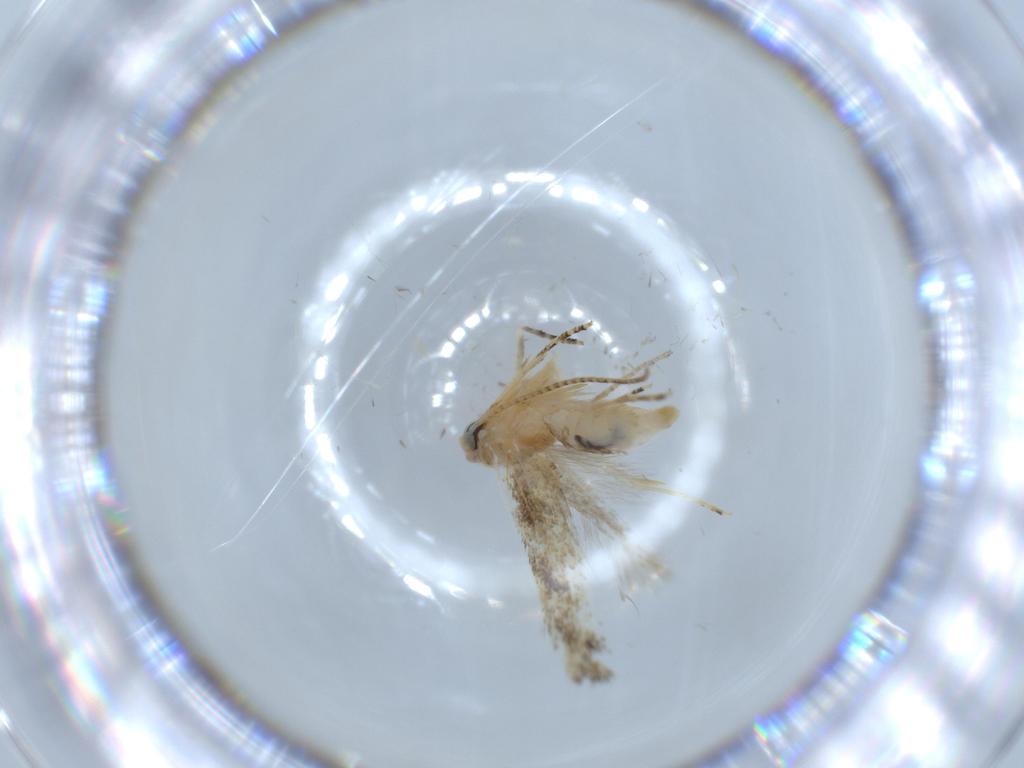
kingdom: Animalia
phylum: Arthropoda
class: Insecta
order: Lepidoptera
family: Bucculatricidae
